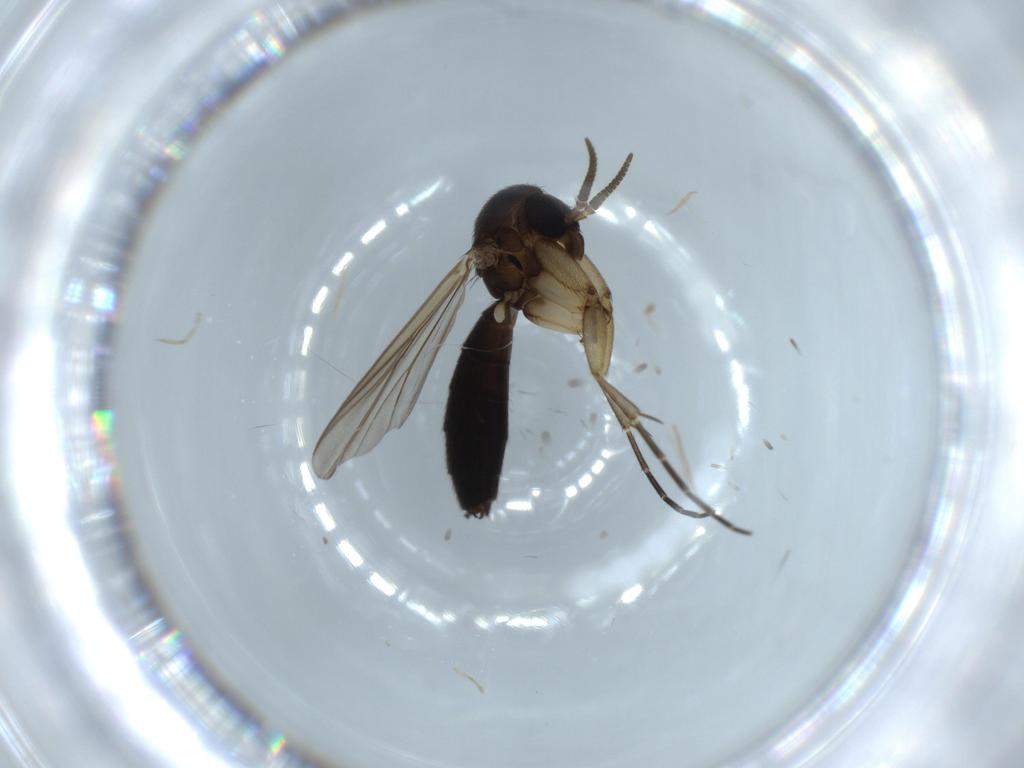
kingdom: Animalia
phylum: Arthropoda
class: Insecta
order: Diptera
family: Mycetophilidae
